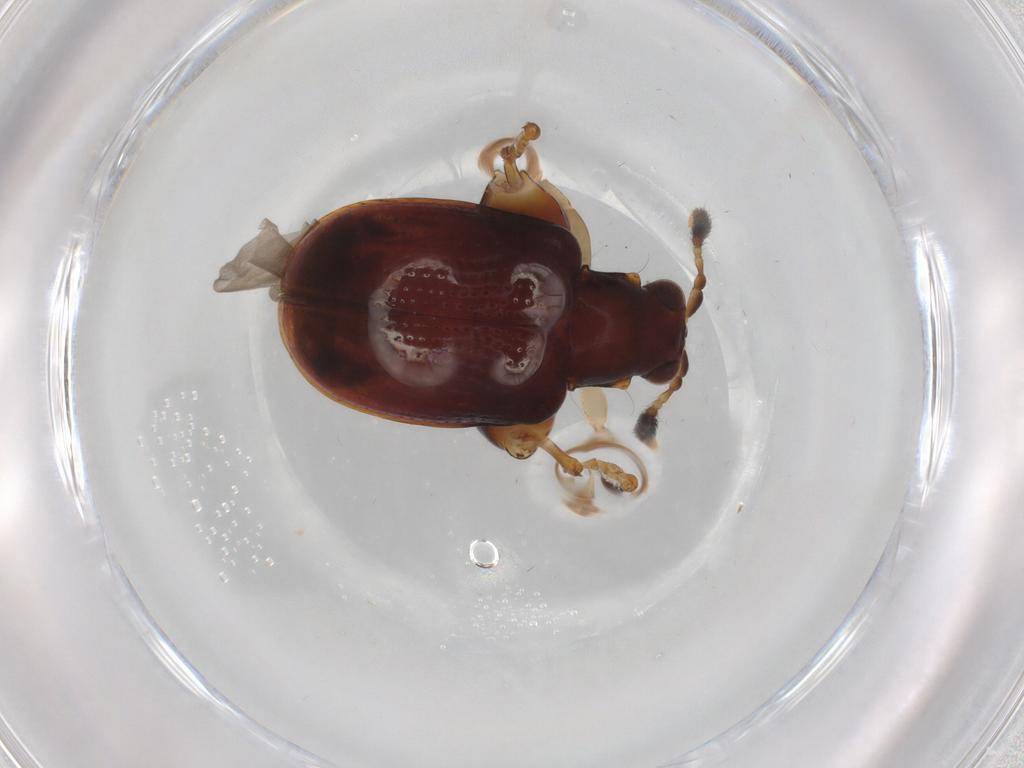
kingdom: Animalia
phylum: Arthropoda
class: Insecta
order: Coleoptera
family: Chrysomelidae
